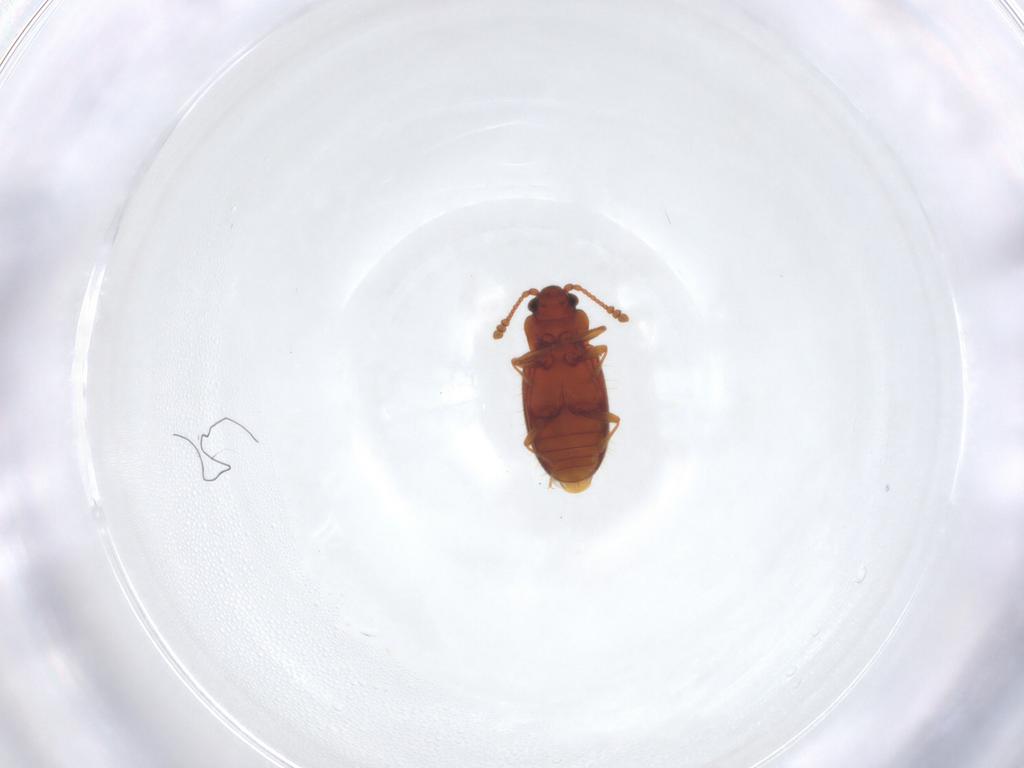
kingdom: Animalia
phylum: Arthropoda
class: Insecta
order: Coleoptera
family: Cryptophagidae
